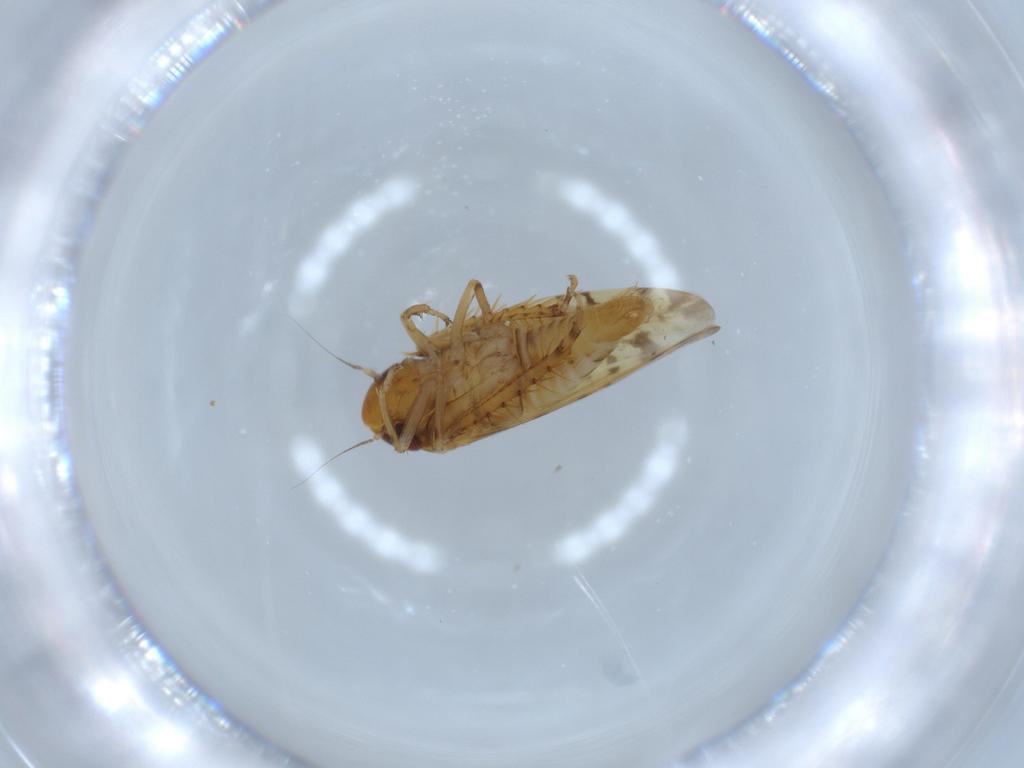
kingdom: Animalia
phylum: Arthropoda
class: Insecta
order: Hemiptera
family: Cicadellidae
